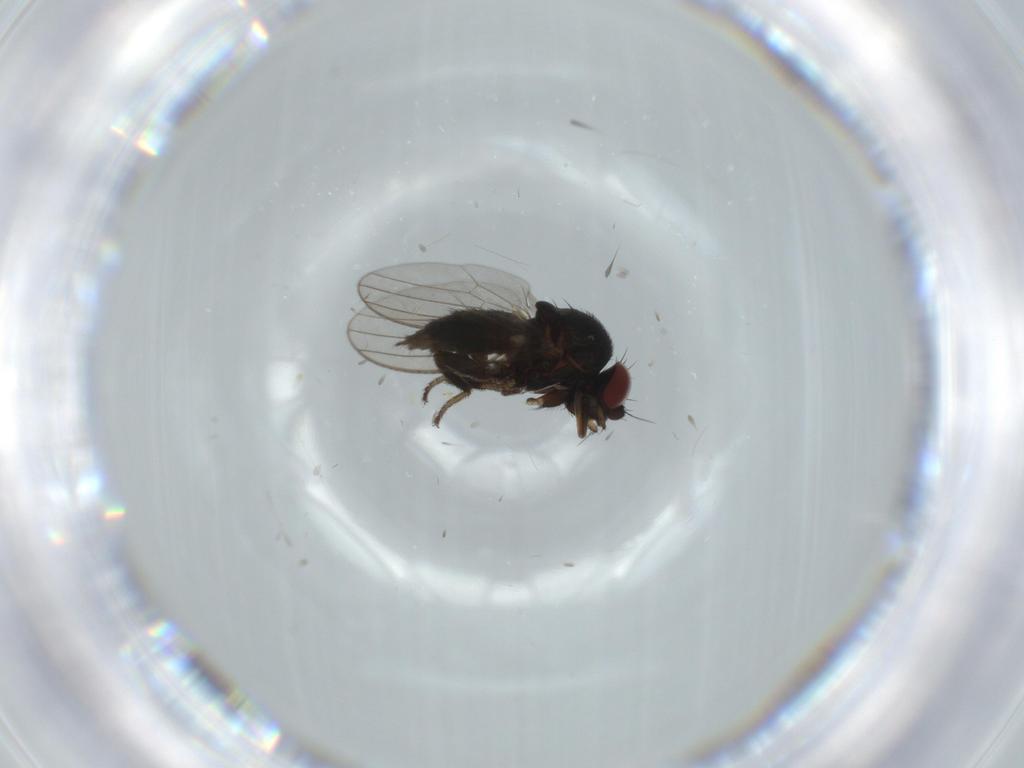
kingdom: Animalia
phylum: Arthropoda
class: Insecta
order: Diptera
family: Milichiidae
